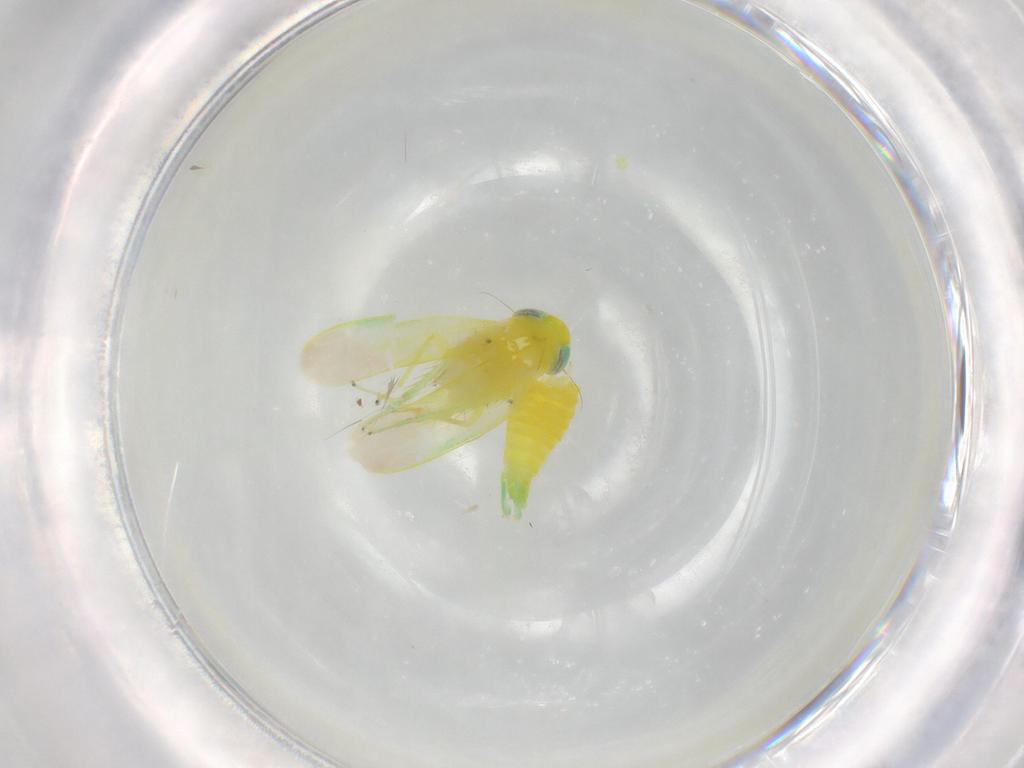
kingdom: Animalia
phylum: Arthropoda
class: Insecta
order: Hemiptera
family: Cicadellidae
